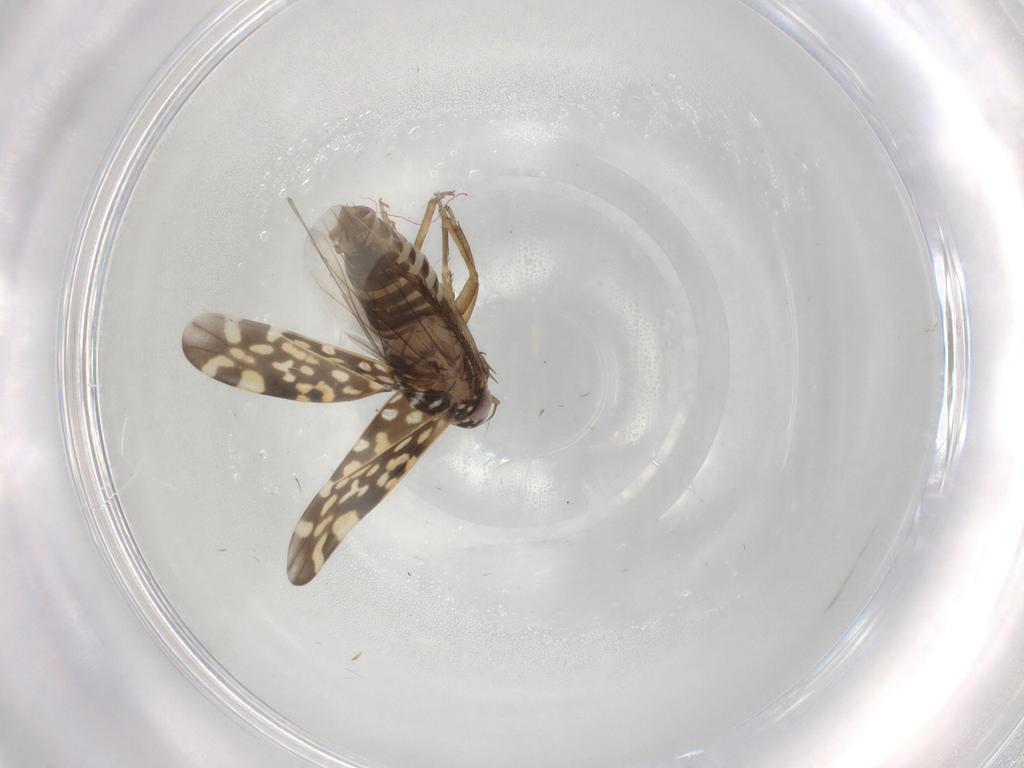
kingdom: Animalia
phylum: Arthropoda
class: Insecta
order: Hemiptera
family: Cicadellidae
